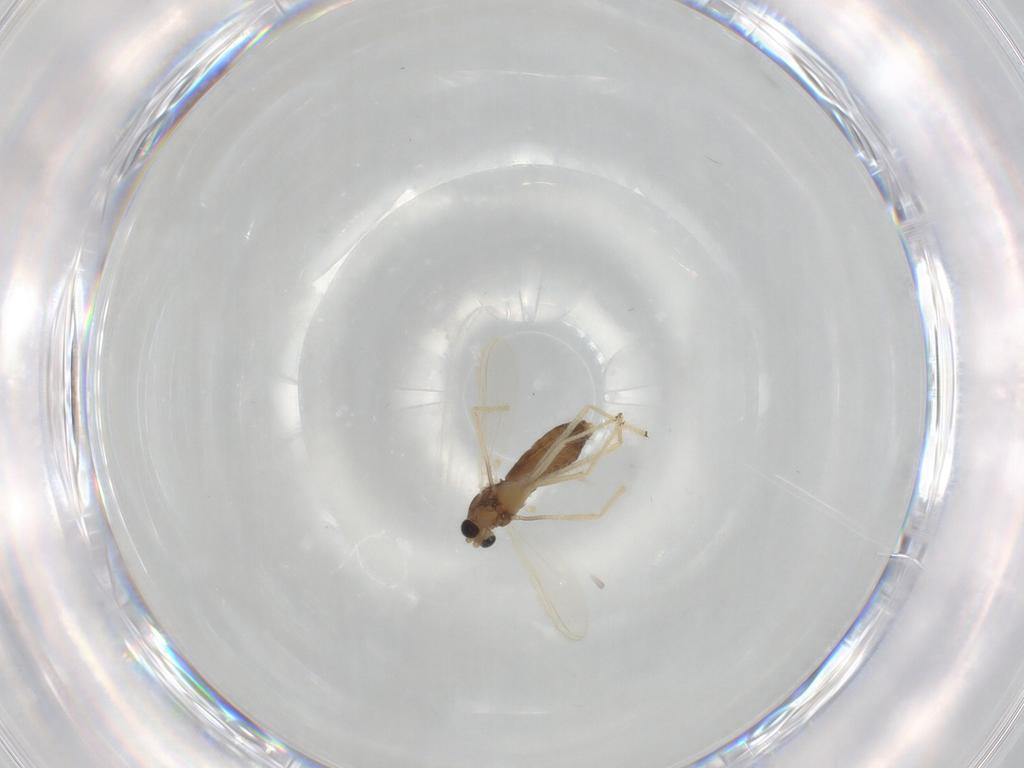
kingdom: Animalia
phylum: Arthropoda
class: Insecta
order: Diptera
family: Chironomidae
